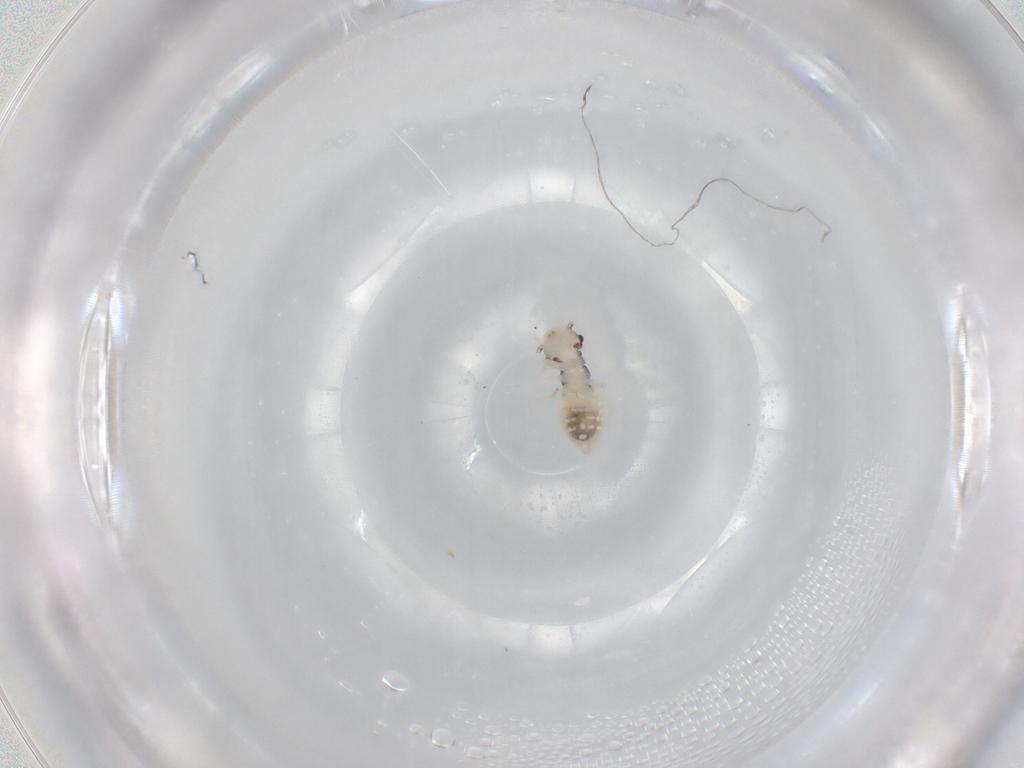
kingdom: Animalia
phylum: Arthropoda
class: Insecta
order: Psocodea
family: Philotarsidae
